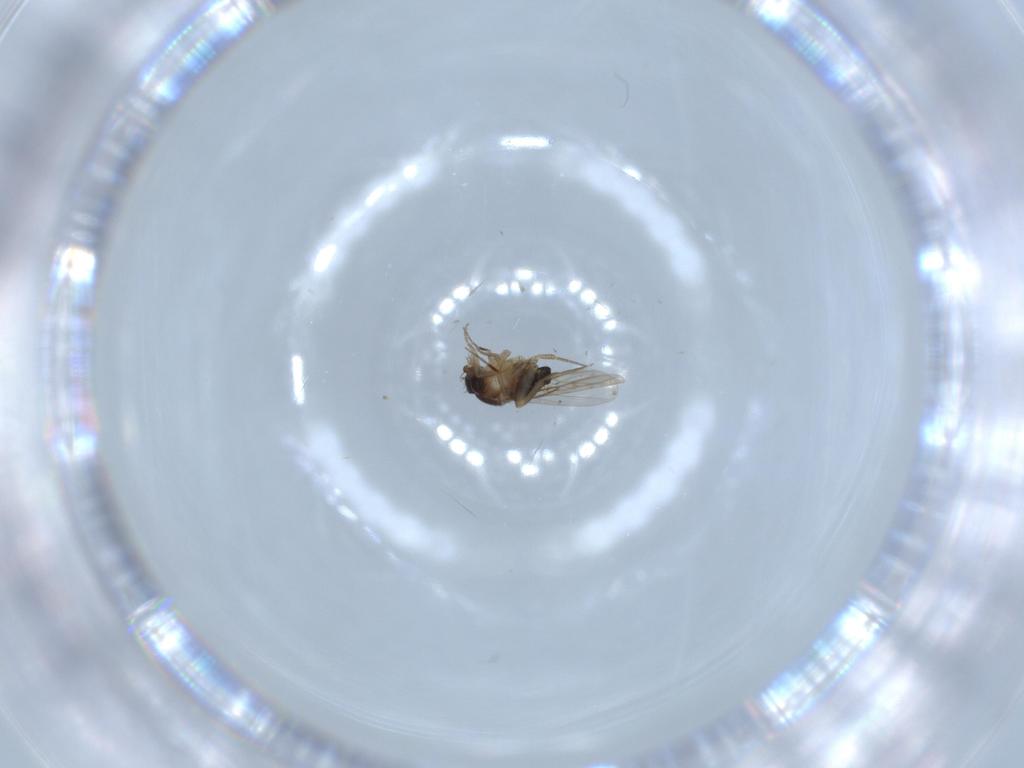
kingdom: Animalia
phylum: Arthropoda
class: Insecta
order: Diptera
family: Phoridae
